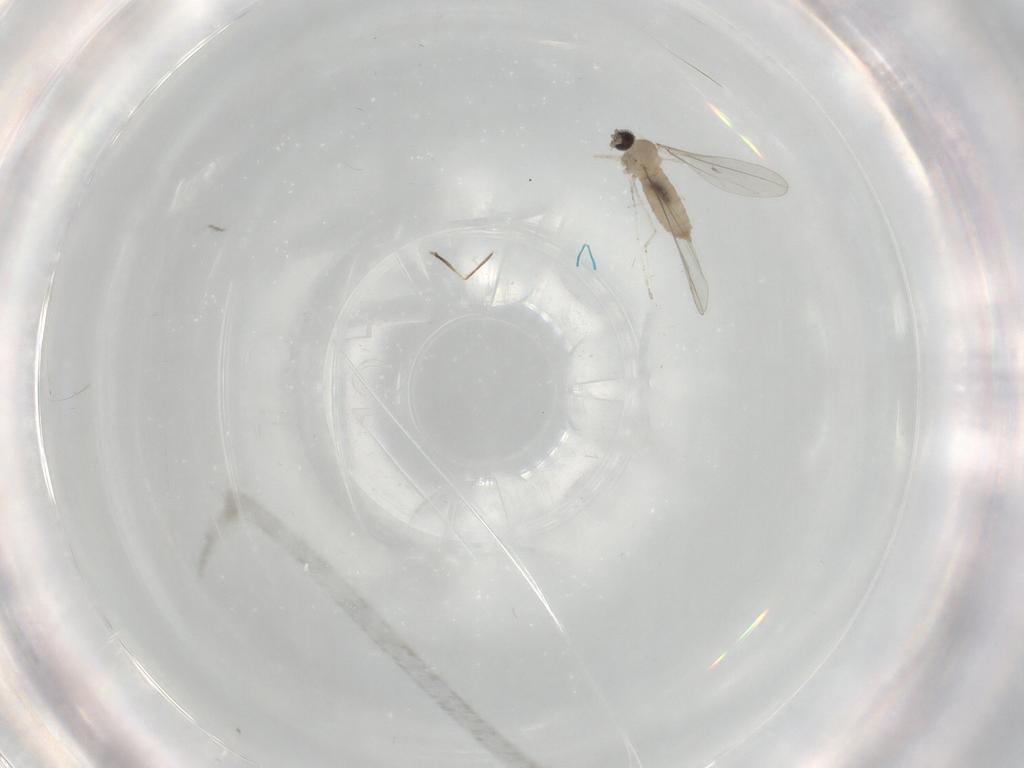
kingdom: Animalia
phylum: Arthropoda
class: Insecta
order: Diptera
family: Cecidomyiidae
